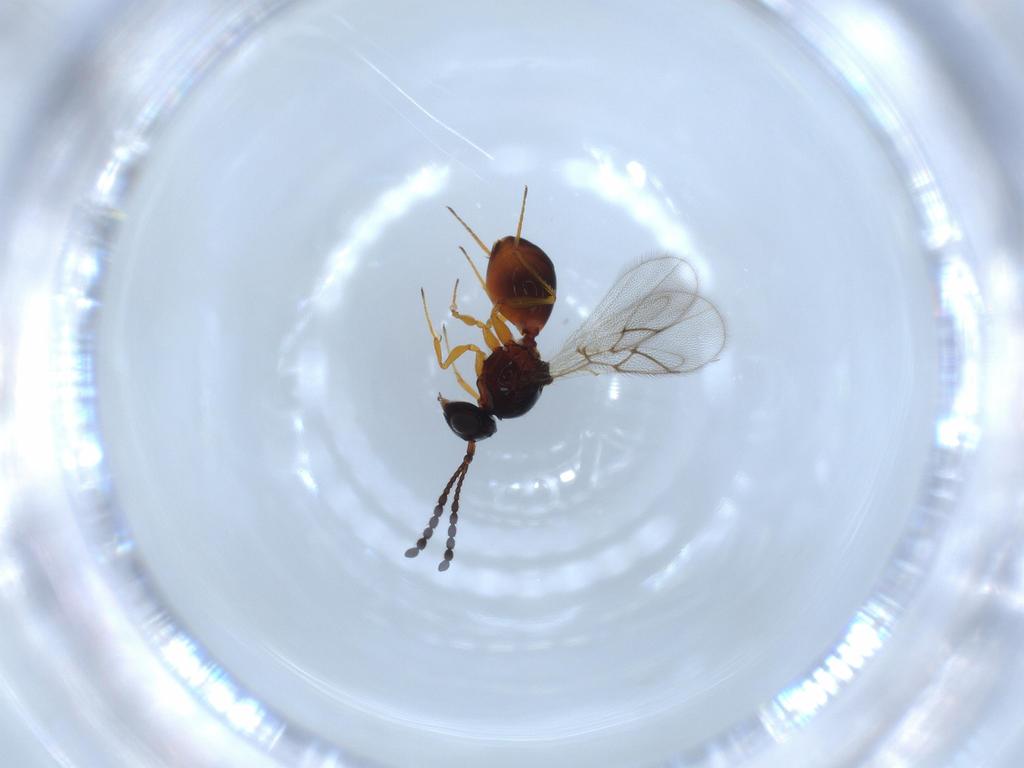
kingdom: Animalia
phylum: Arthropoda
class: Insecta
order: Hymenoptera
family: Figitidae
